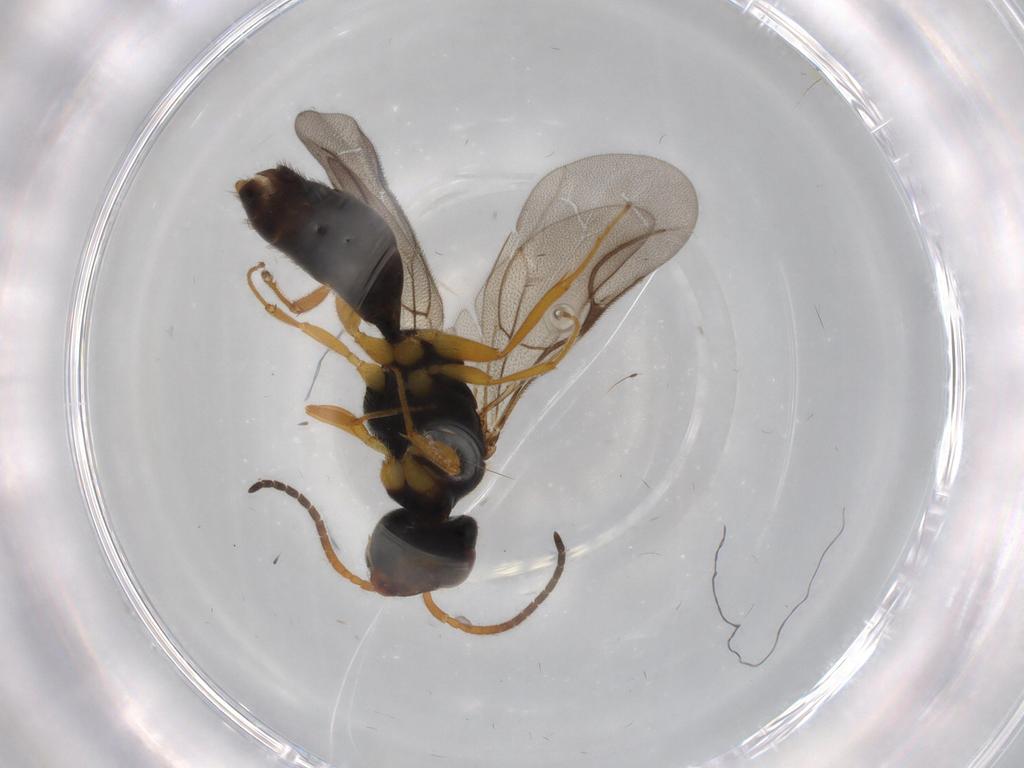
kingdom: Animalia
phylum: Arthropoda
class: Insecta
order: Hymenoptera
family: Bethylidae
